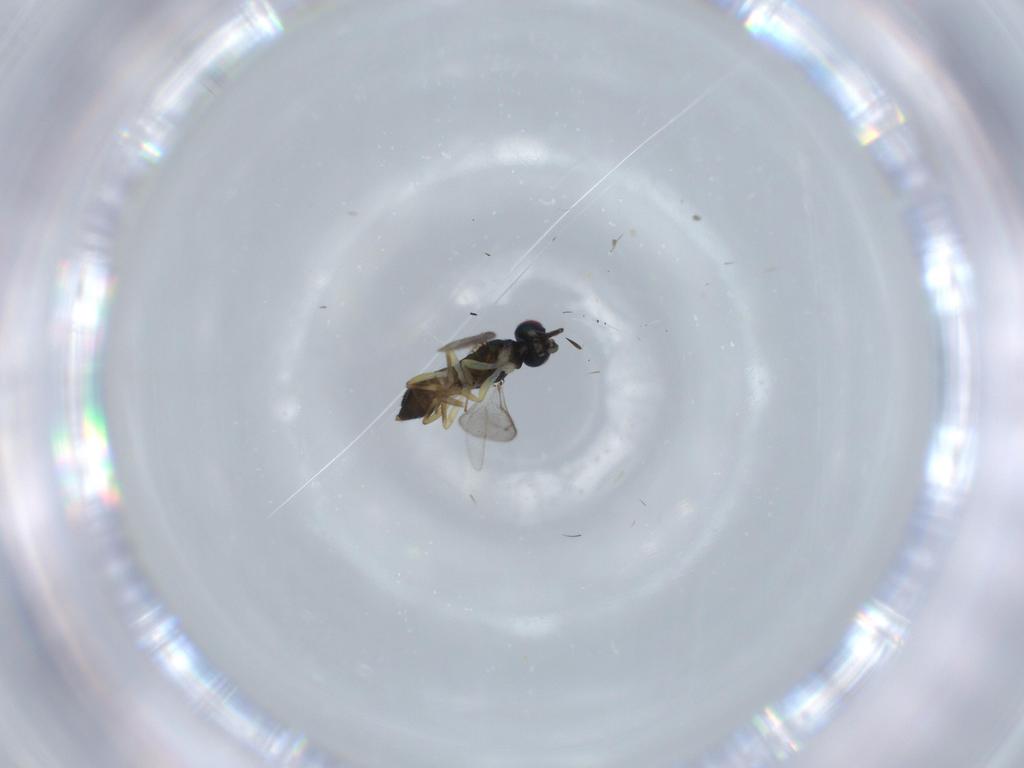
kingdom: Animalia
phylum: Arthropoda
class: Insecta
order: Hymenoptera
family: Eupelmidae
